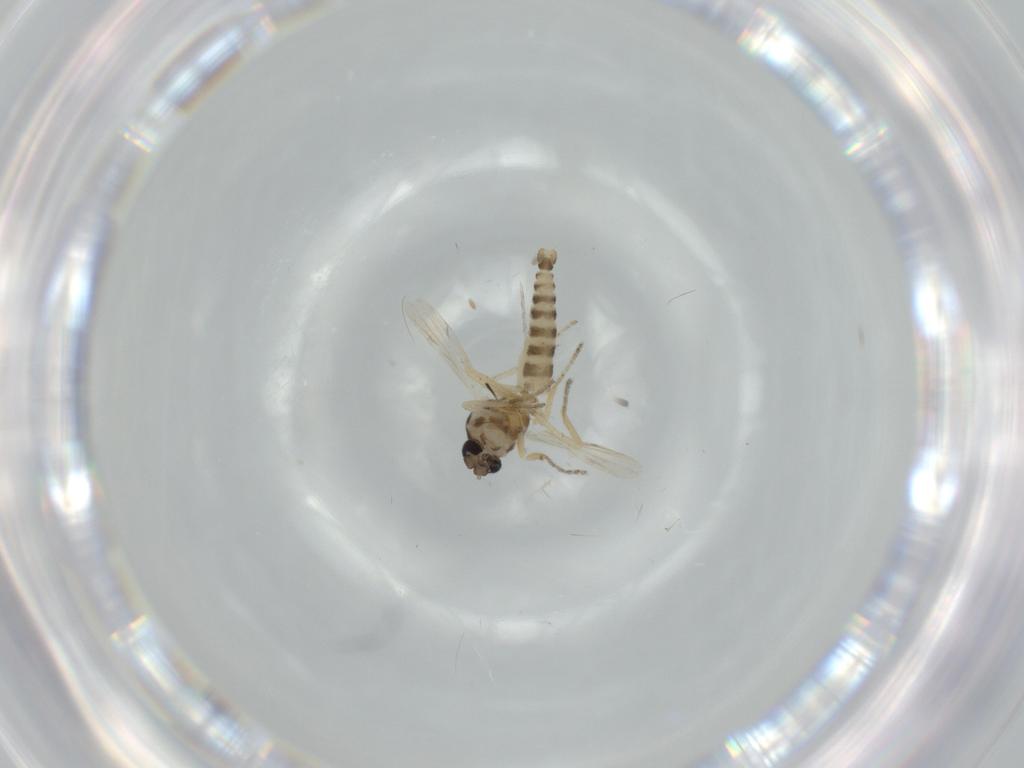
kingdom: Animalia
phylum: Arthropoda
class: Insecta
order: Diptera
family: Ceratopogonidae
